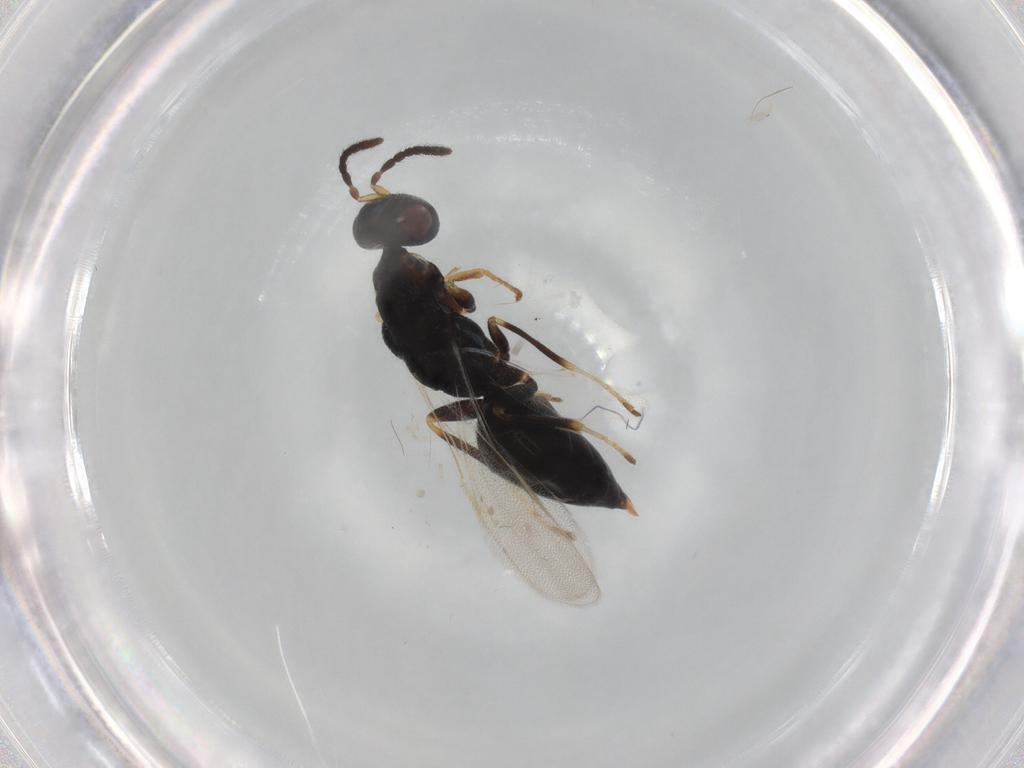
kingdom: Animalia
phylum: Arthropoda
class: Insecta
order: Hymenoptera
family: Eurytomidae
